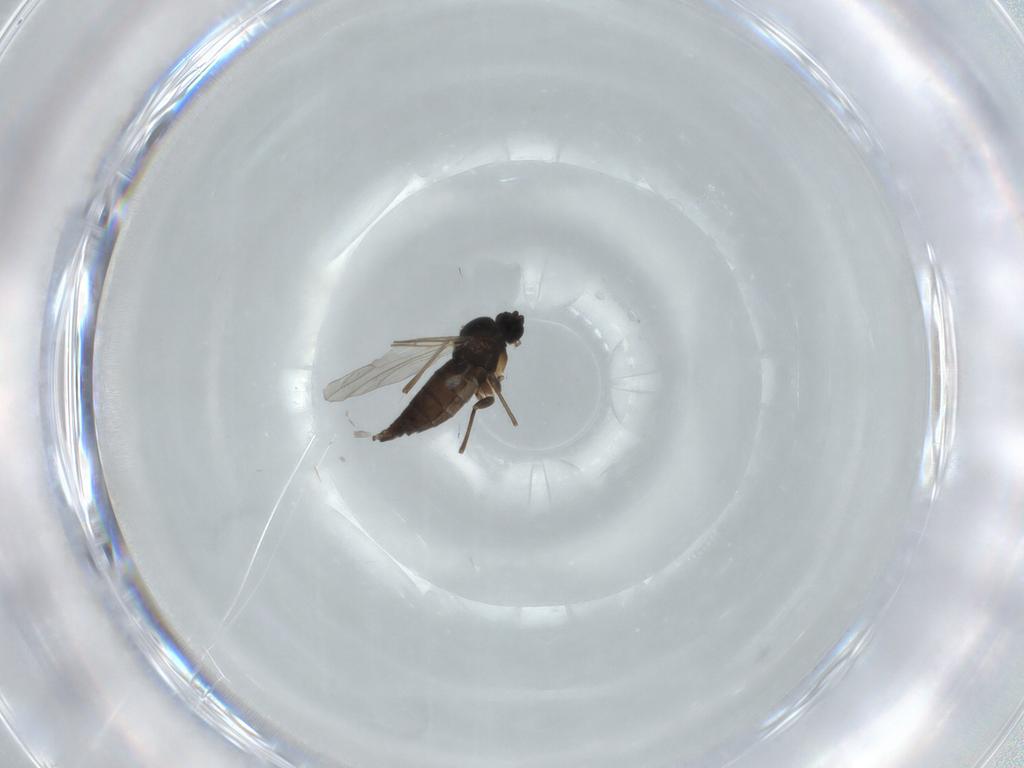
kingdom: Animalia
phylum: Arthropoda
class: Insecta
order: Diptera
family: Sciaridae
